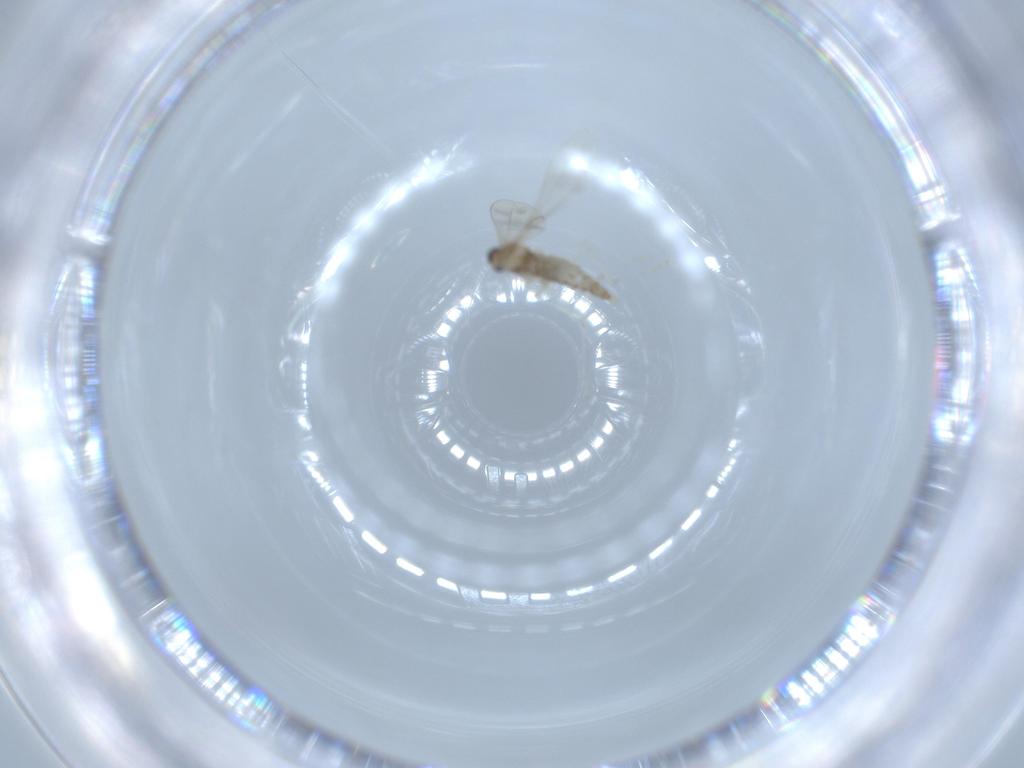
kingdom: Animalia
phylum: Arthropoda
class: Insecta
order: Diptera
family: Cecidomyiidae
